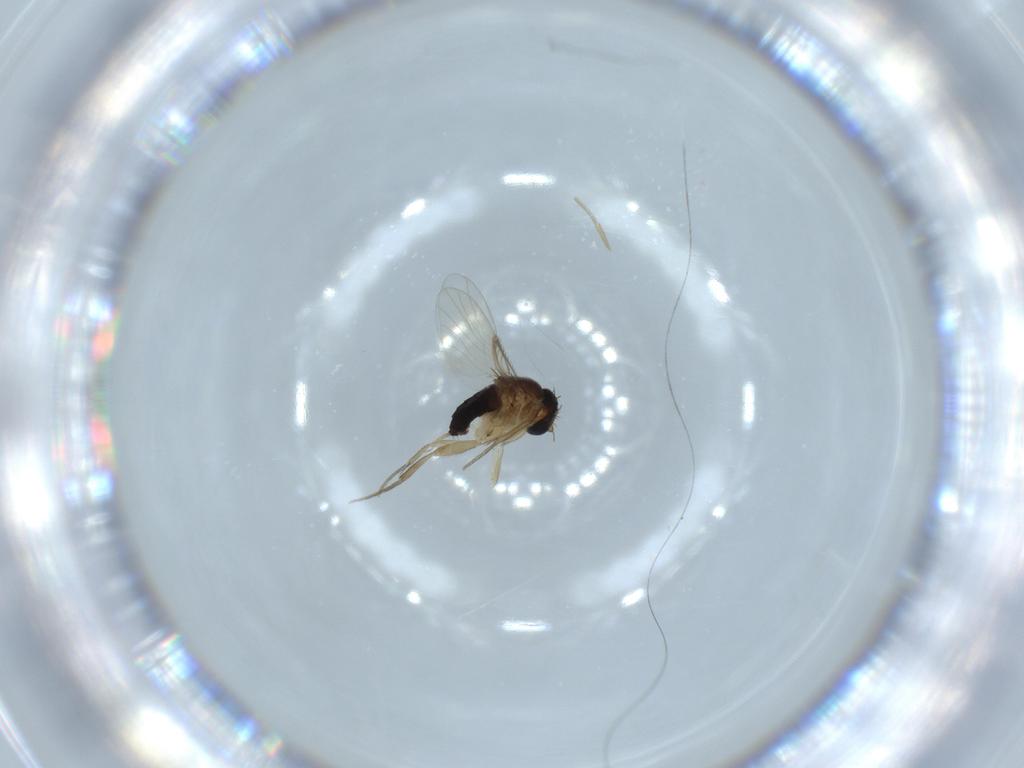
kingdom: Animalia
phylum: Arthropoda
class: Insecta
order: Diptera
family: Phoridae
